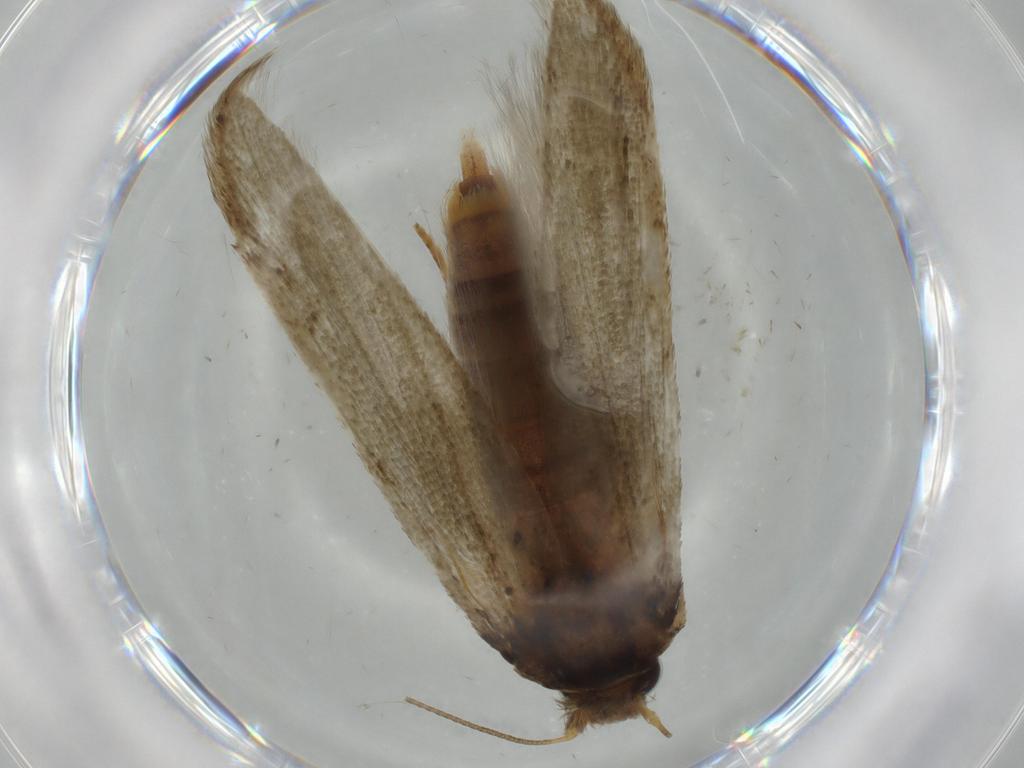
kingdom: Animalia
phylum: Arthropoda
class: Insecta
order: Lepidoptera
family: Blastobasidae
